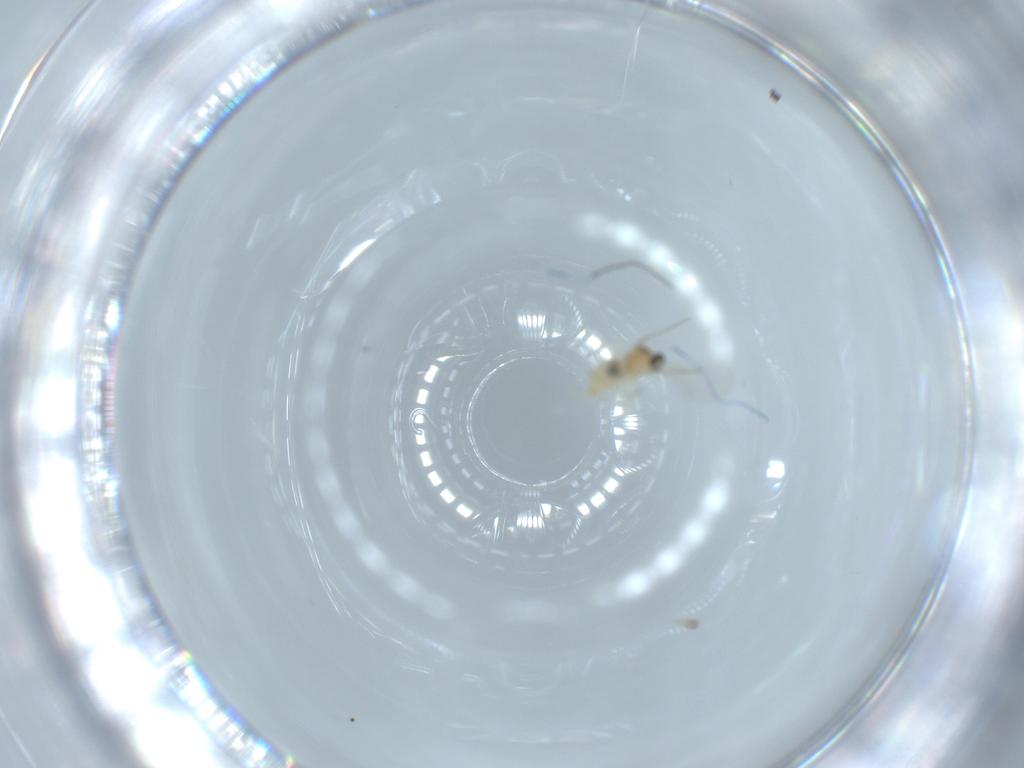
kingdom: Animalia
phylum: Arthropoda
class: Insecta
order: Diptera
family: Cecidomyiidae
